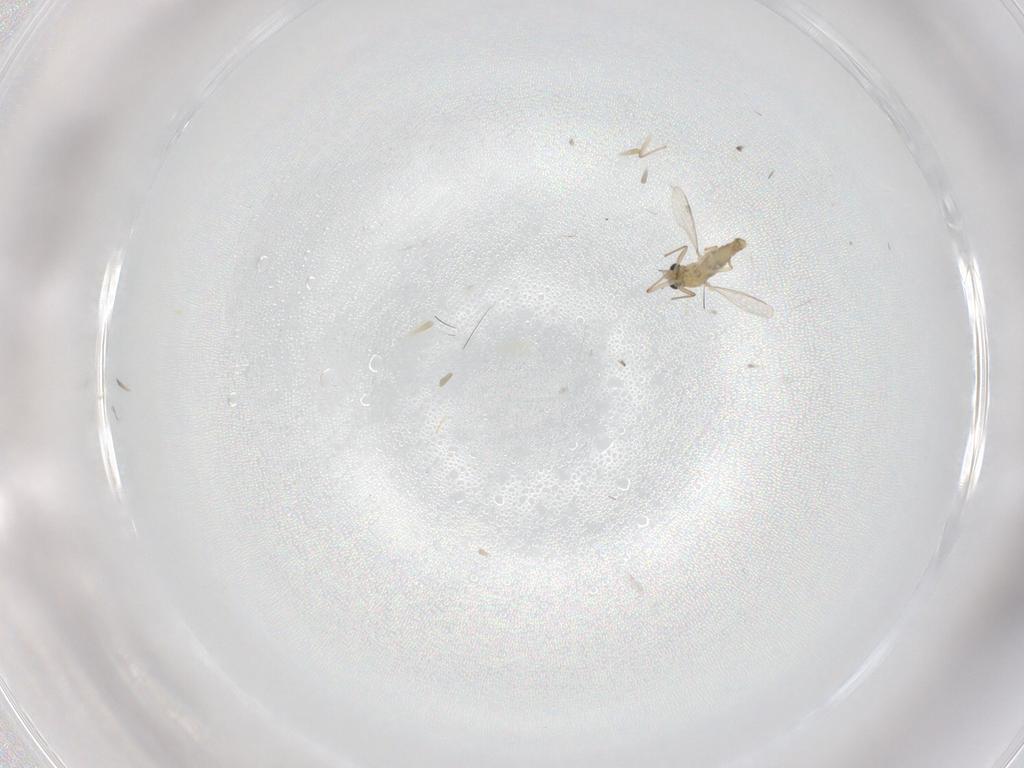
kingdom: Animalia
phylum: Arthropoda
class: Insecta
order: Diptera
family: Chironomidae
